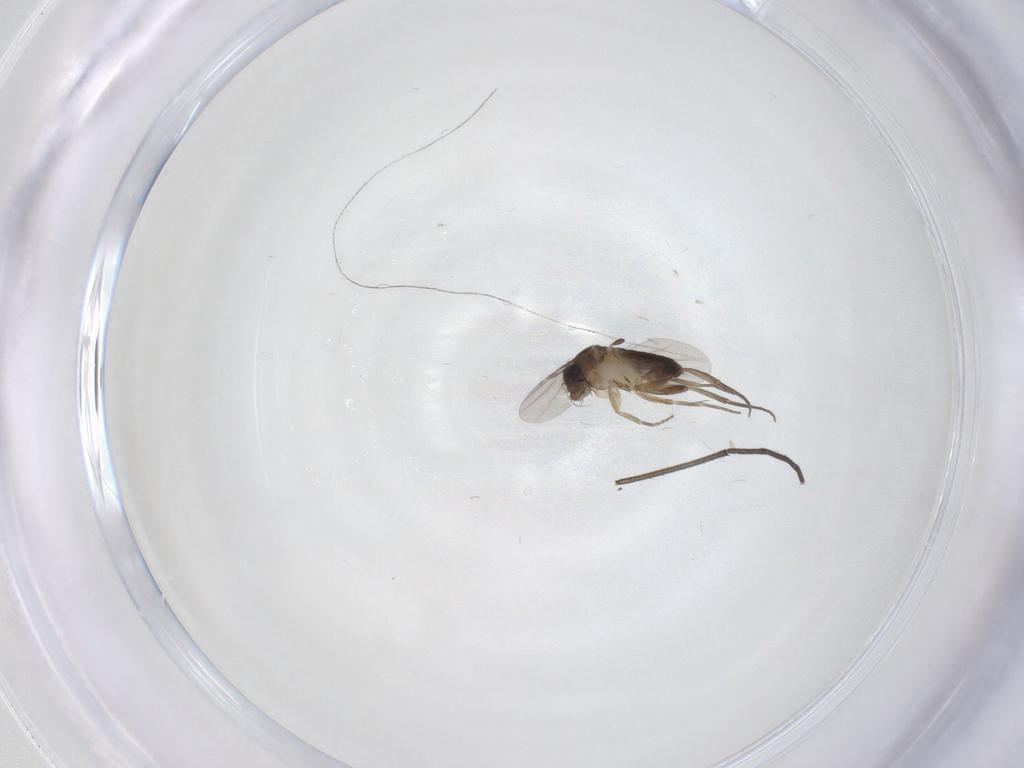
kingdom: Animalia
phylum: Arthropoda
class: Insecta
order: Diptera
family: Sciaridae
